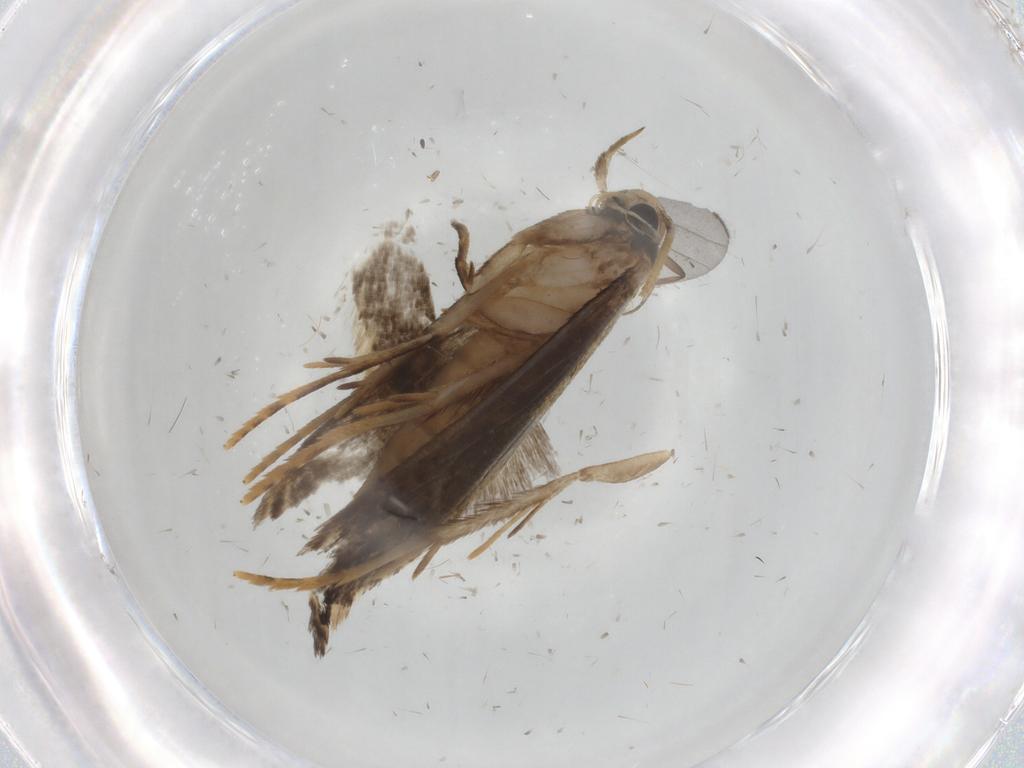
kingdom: Animalia
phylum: Arthropoda
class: Insecta
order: Lepidoptera
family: Tineidae
